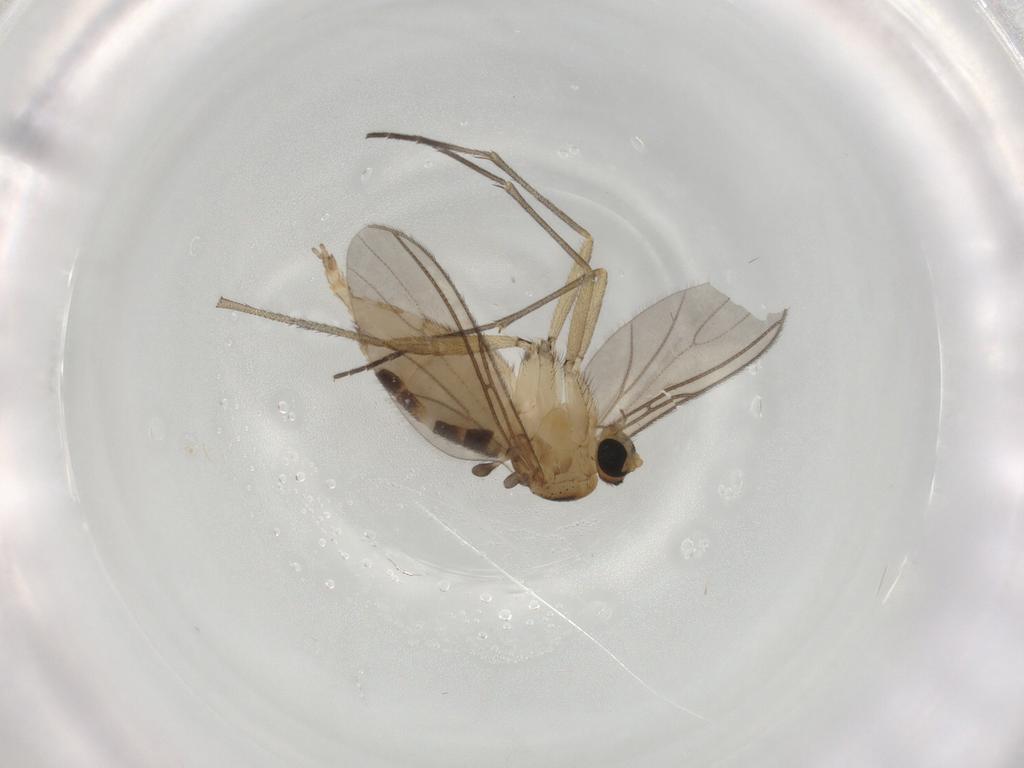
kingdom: Animalia
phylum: Arthropoda
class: Insecta
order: Diptera
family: Sciaridae
